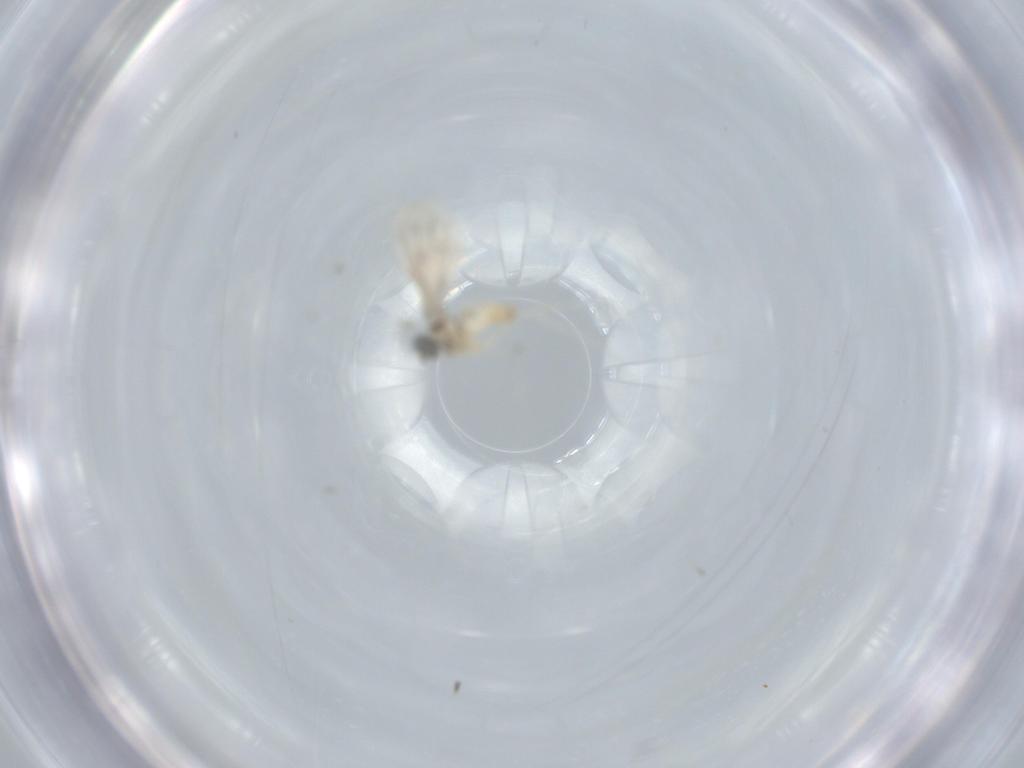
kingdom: Animalia
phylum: Arthropoda
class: Insecta
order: Diptera
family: Cecidomyiidae
